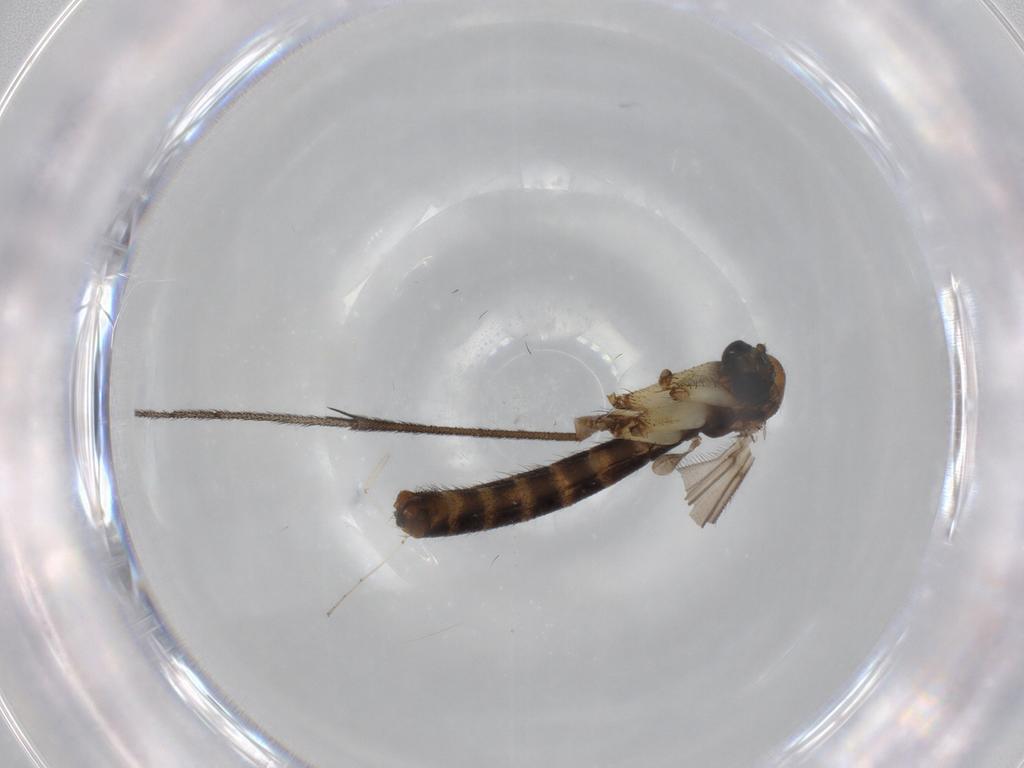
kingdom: Animalia
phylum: Arthropoda
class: Insecta
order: Diptera
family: Ditomyiidae
